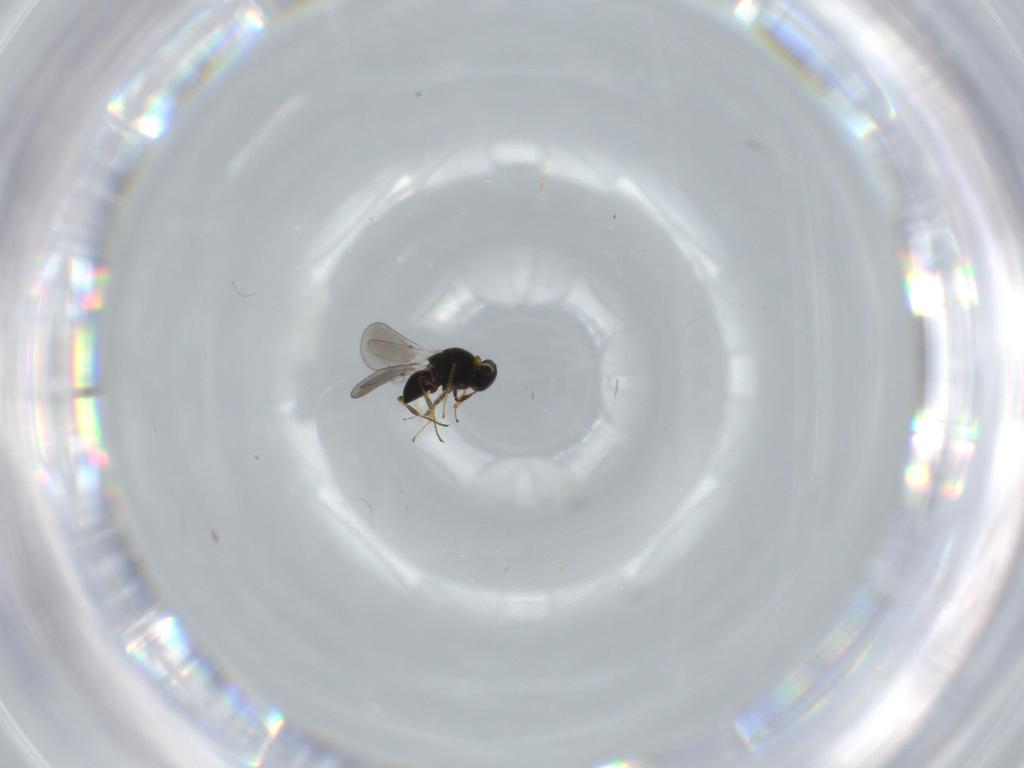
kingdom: Animalia
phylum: Arthropoda
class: Insecta
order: Hymenoptera
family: Platygastridae
